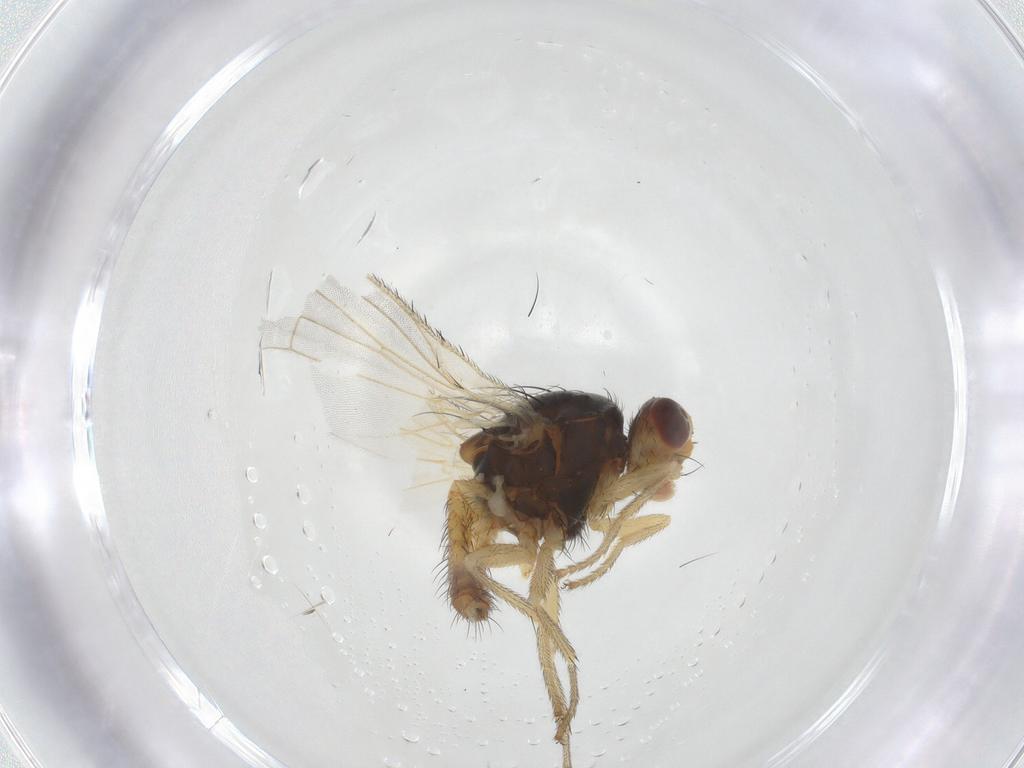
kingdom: Animalia
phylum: Arthropoda
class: Insecta
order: Diptera
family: Heleomyzidae
